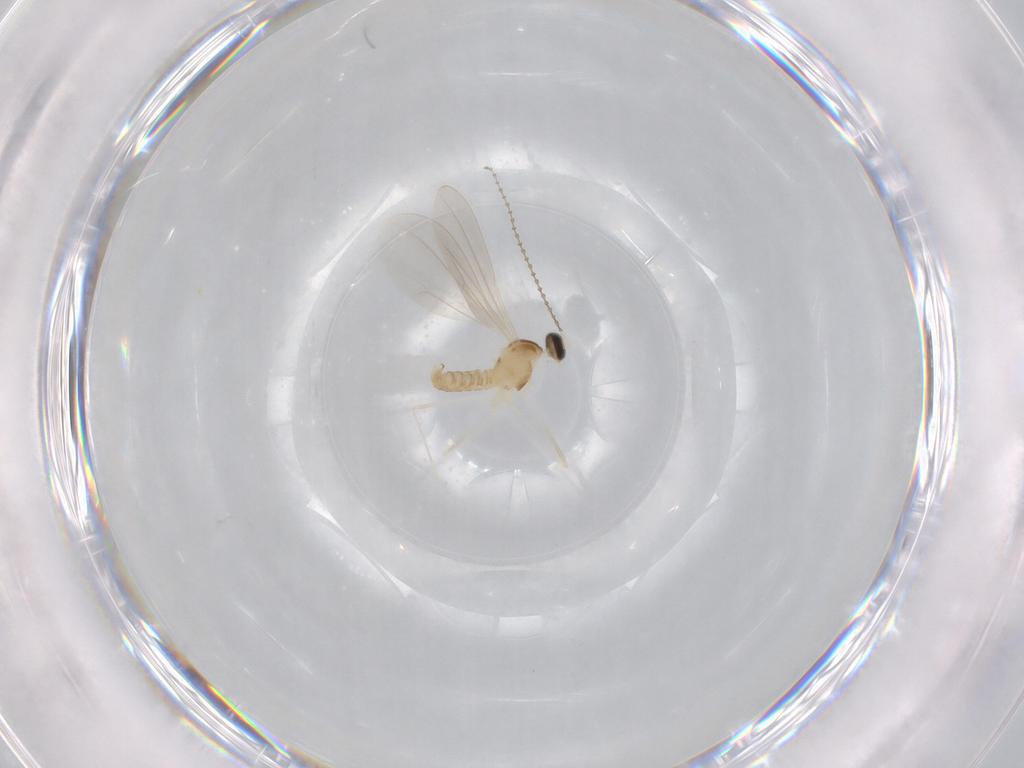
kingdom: Animalia
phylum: Arthropoda
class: Insecta
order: Diptera
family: Cecidomyiidae
